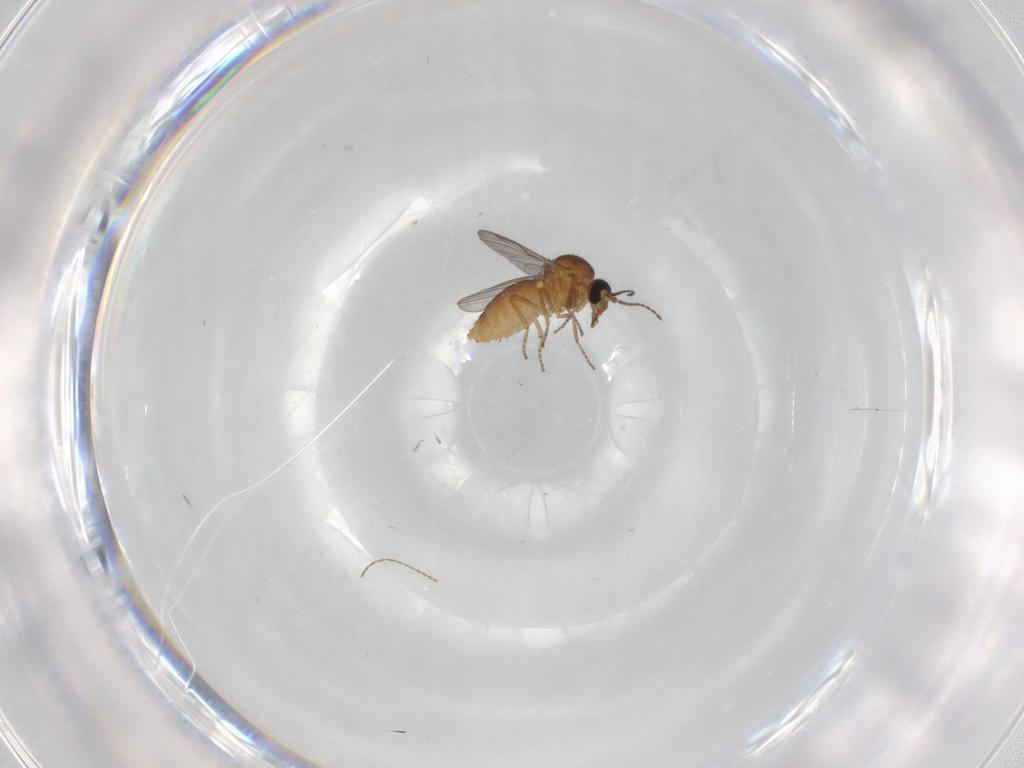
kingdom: Animalia
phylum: Arthropoda
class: Insecta
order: Diptera
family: Ceratopogonidae
